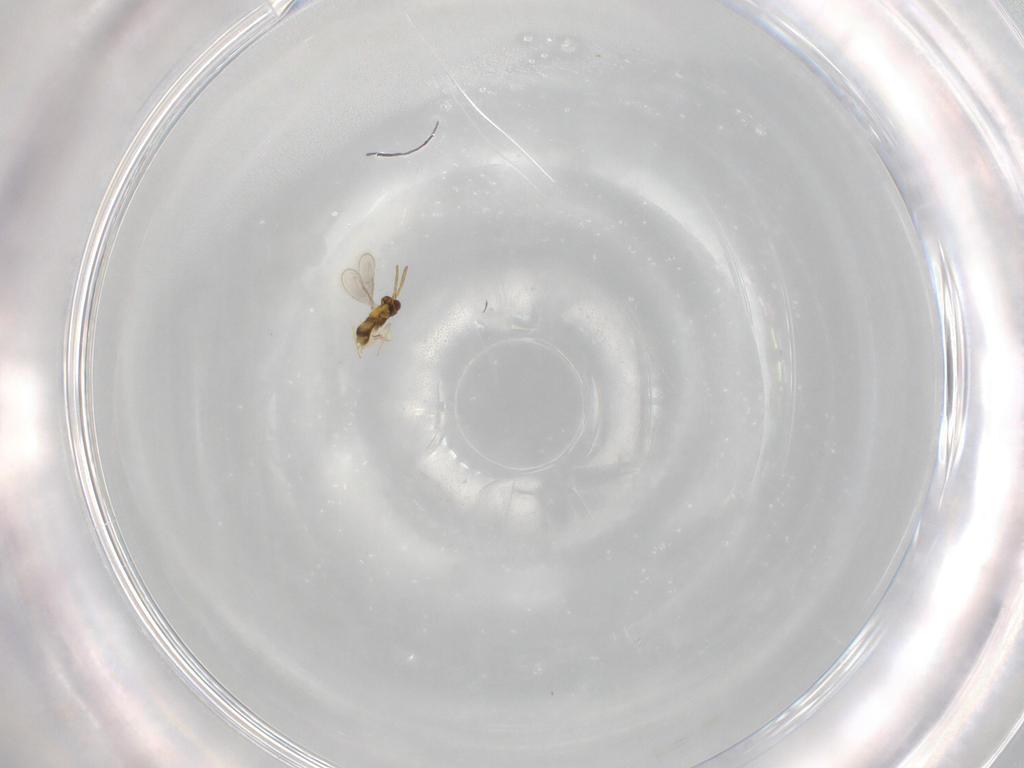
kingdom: Animalia
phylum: Arthropoda
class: Insecta
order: Hymenoptera
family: Aphelinidae
